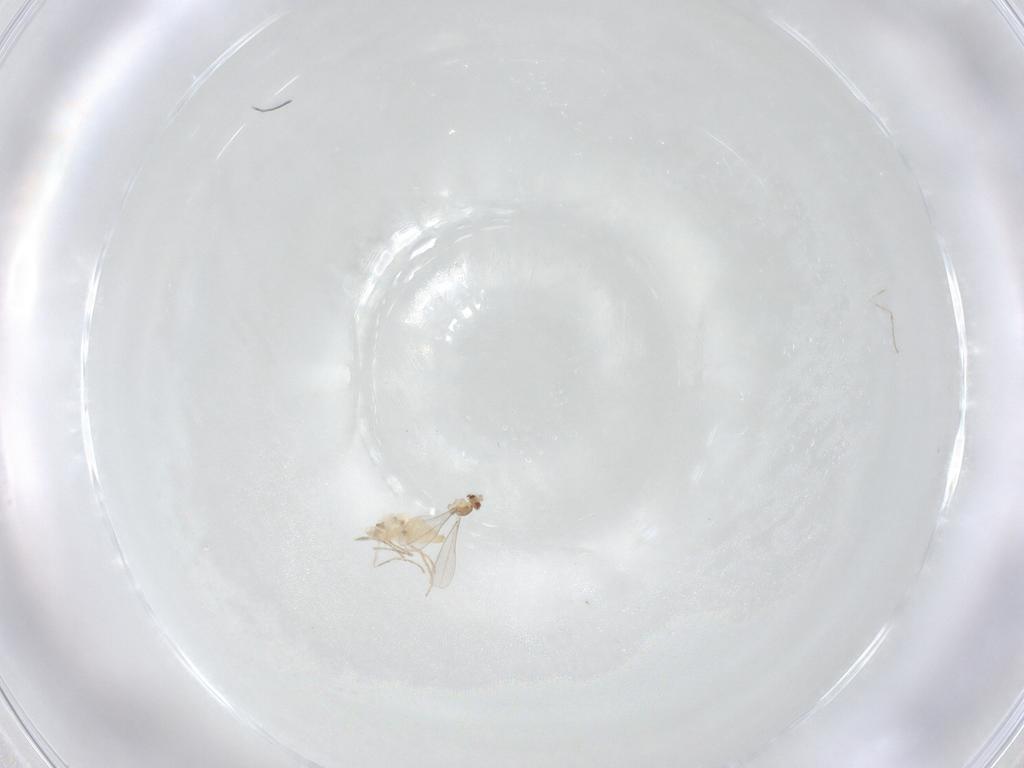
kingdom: Animalia
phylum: Arthropoda
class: Insecta
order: Diptera
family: Cecidomyiidae
